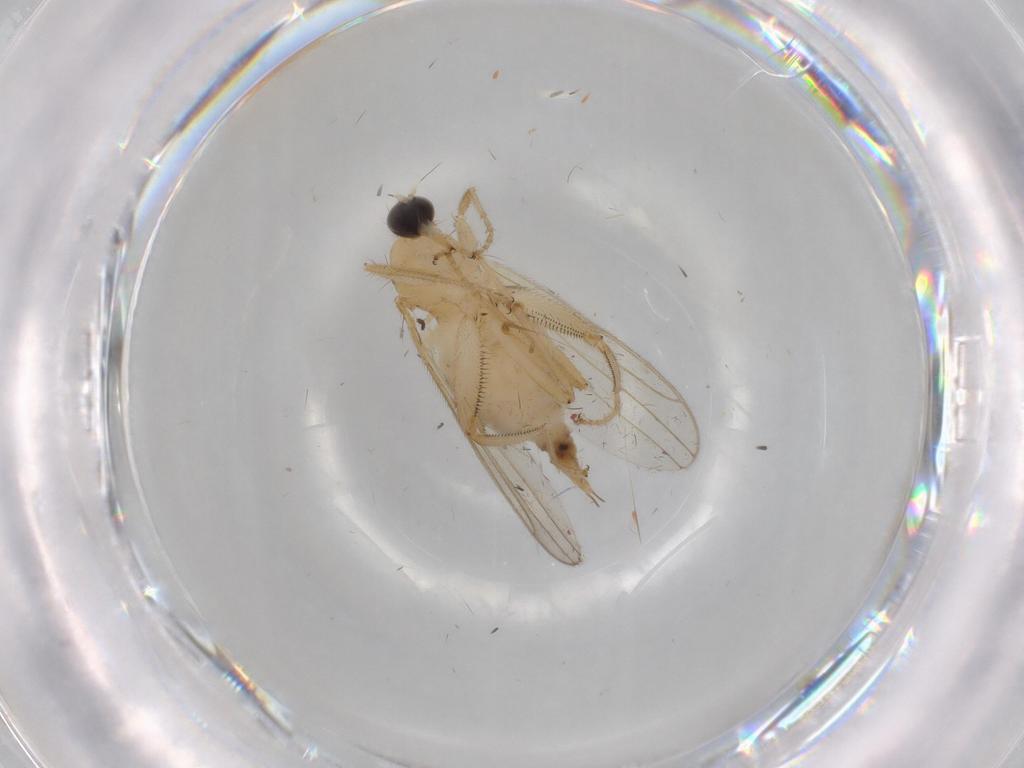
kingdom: Animalia
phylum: Arthropoda
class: Insecta
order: Diptera
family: Hybotidae
